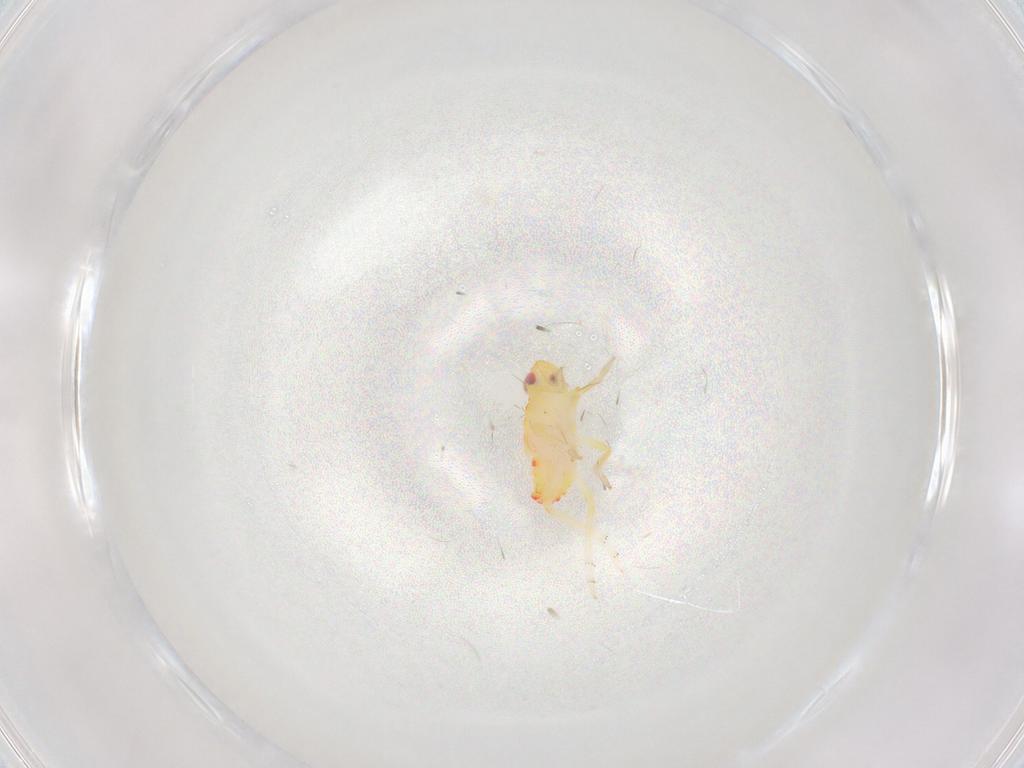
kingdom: Animalia
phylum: Arthropoda
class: Insecta
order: Hemiptera
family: Tropiduchidae
